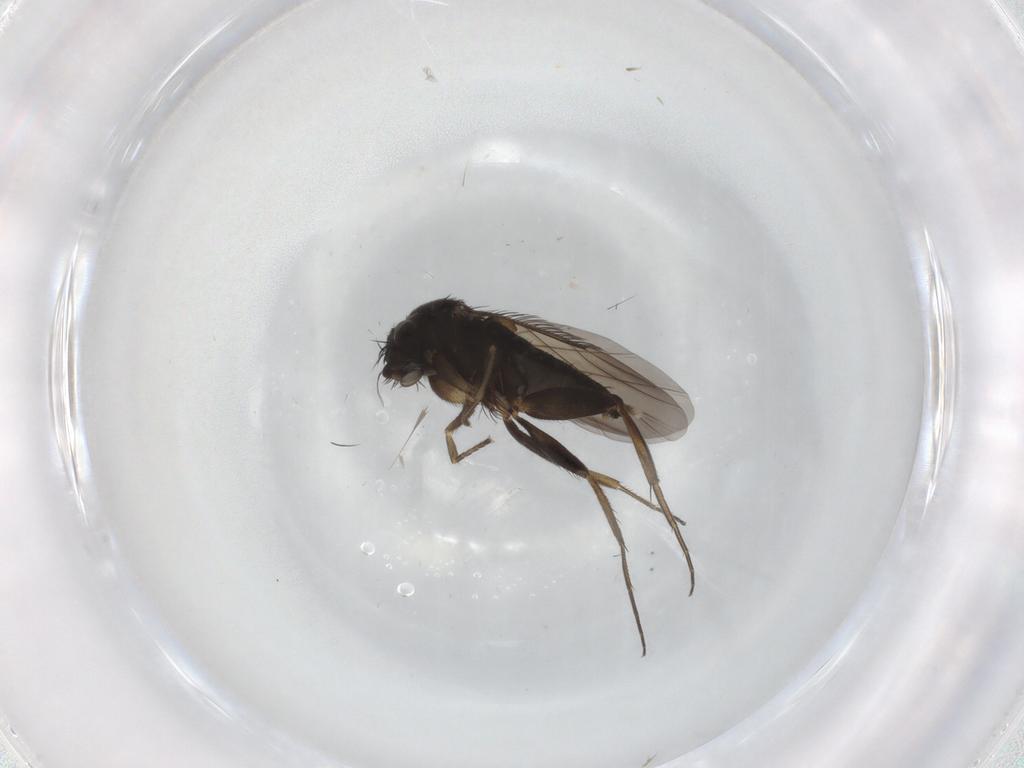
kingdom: Animalia
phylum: Arthropoda
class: Insecta
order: Diptera
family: Phoridae
